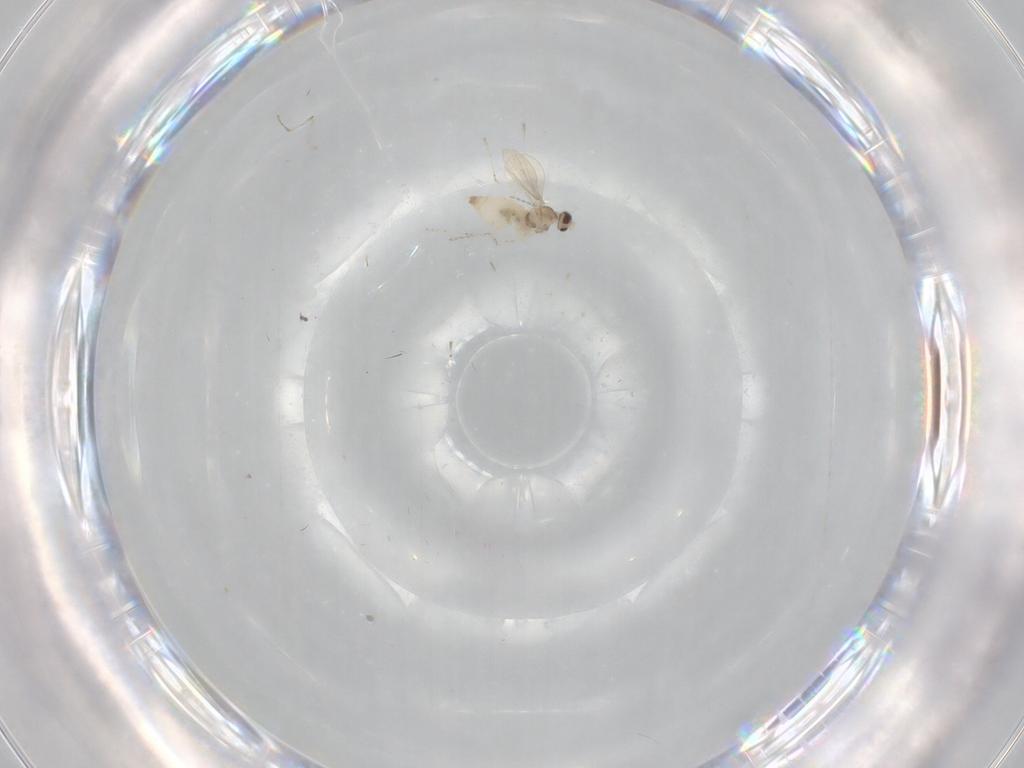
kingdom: Animalia
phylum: Arthropoda
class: Insecta
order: Diptera
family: Cecidomyiidae
